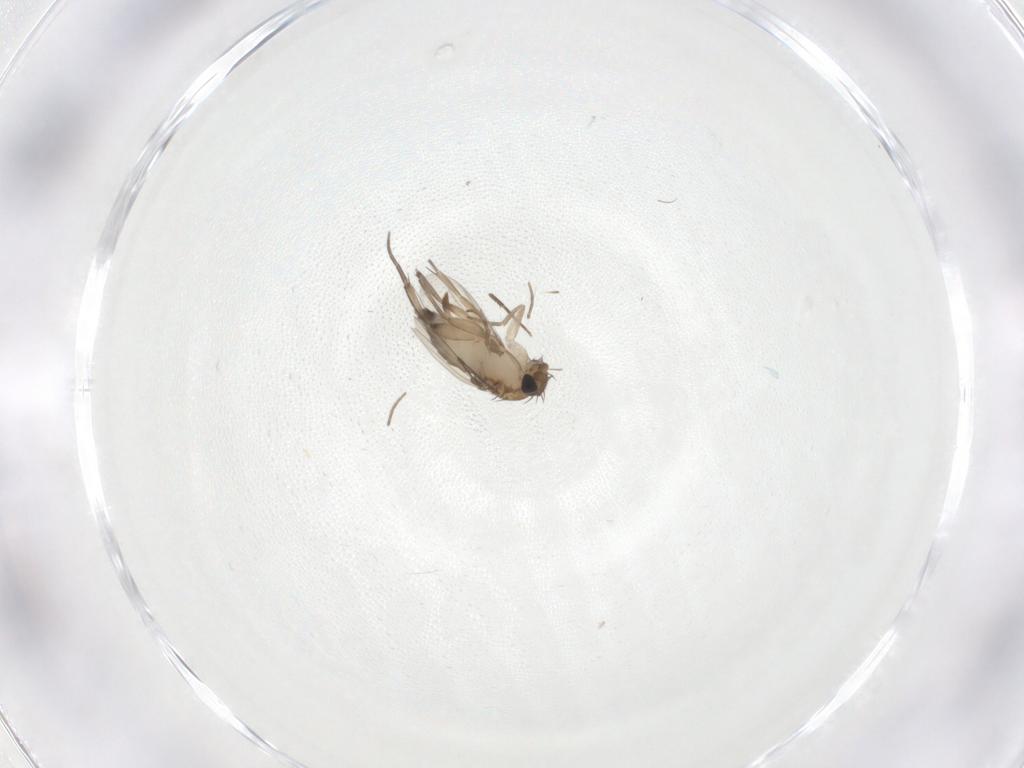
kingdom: Animalia
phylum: Arthropoda
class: Insecta
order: Diptera
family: Phoridae
